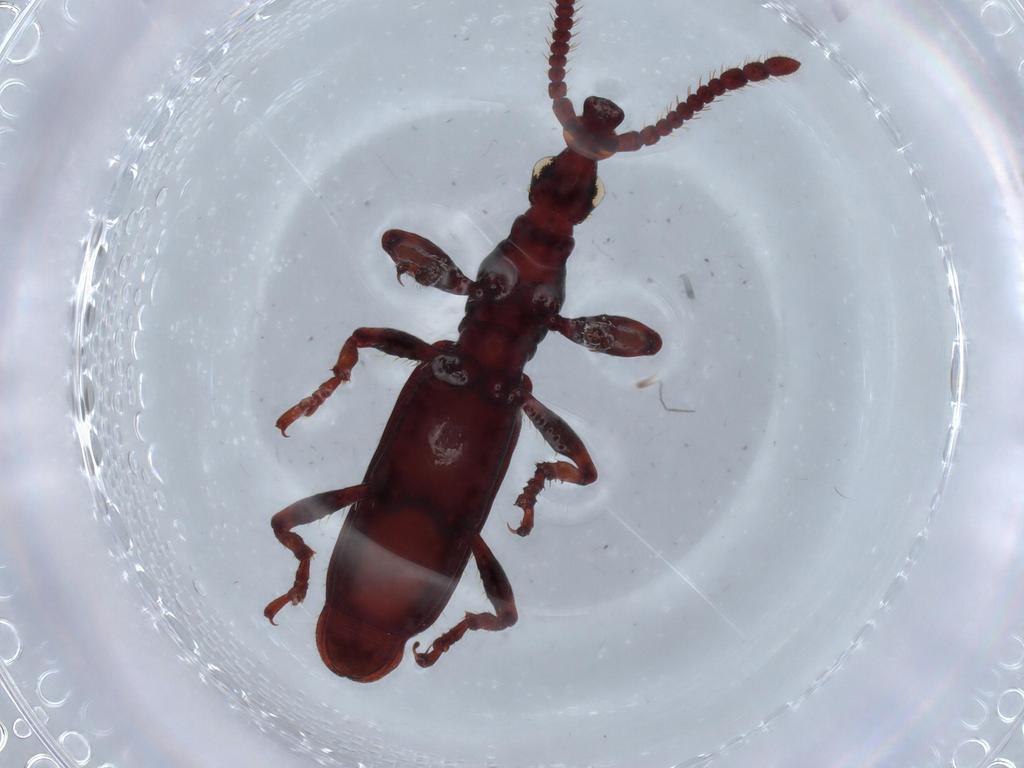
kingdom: Animalia
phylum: Arthropoda
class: Insecta
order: Coleoptera
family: Brentidae
